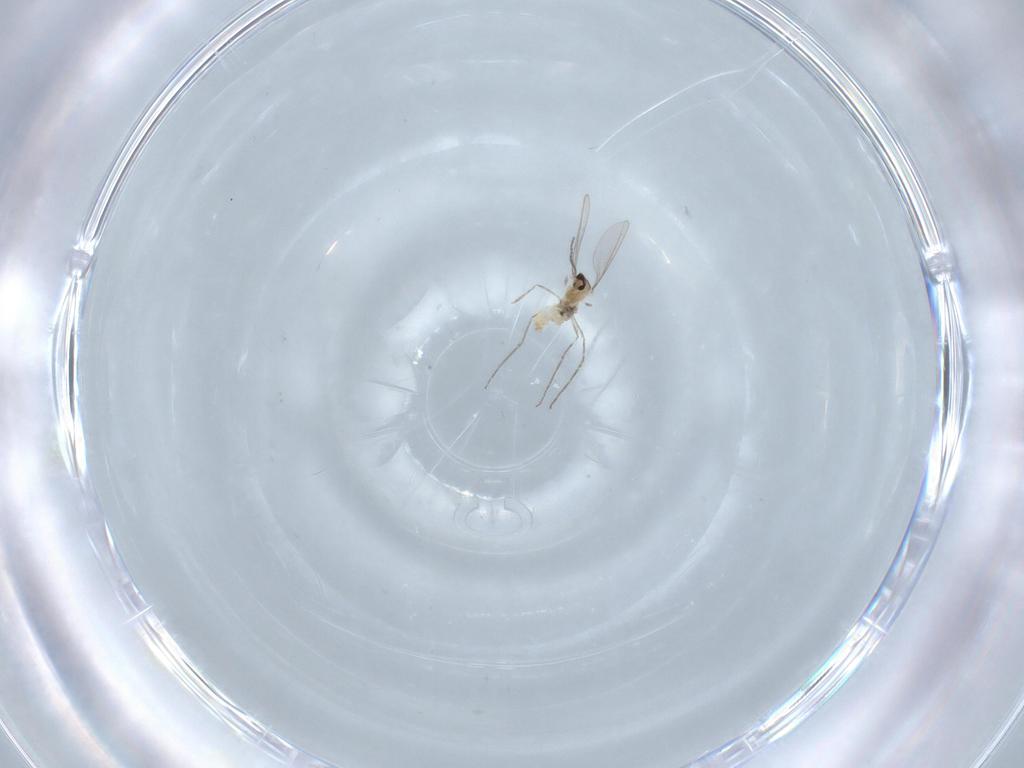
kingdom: Animalia
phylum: Arthropoda
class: Insecta
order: Diptera
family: Cecidomyiidae
